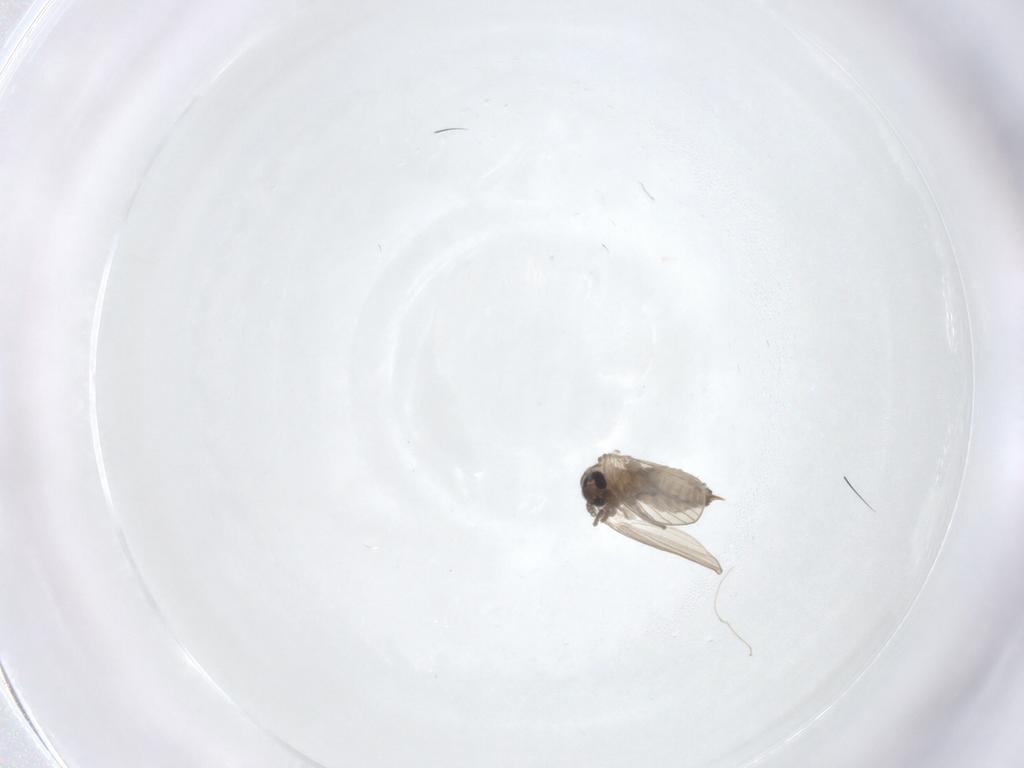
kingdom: Animalia
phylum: Arthropoda
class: Insecta
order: Diptera
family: Psychodidae
